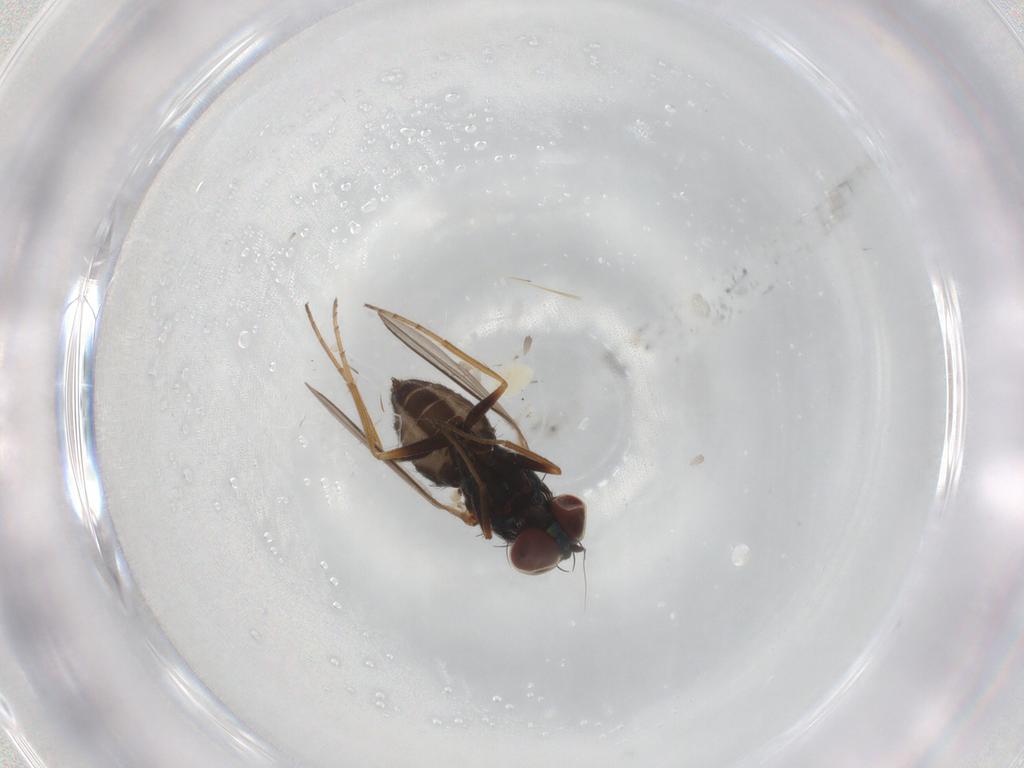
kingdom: Animalia
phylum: Arthropoda
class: Insecta
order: Diptera
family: Dolichopodidae
